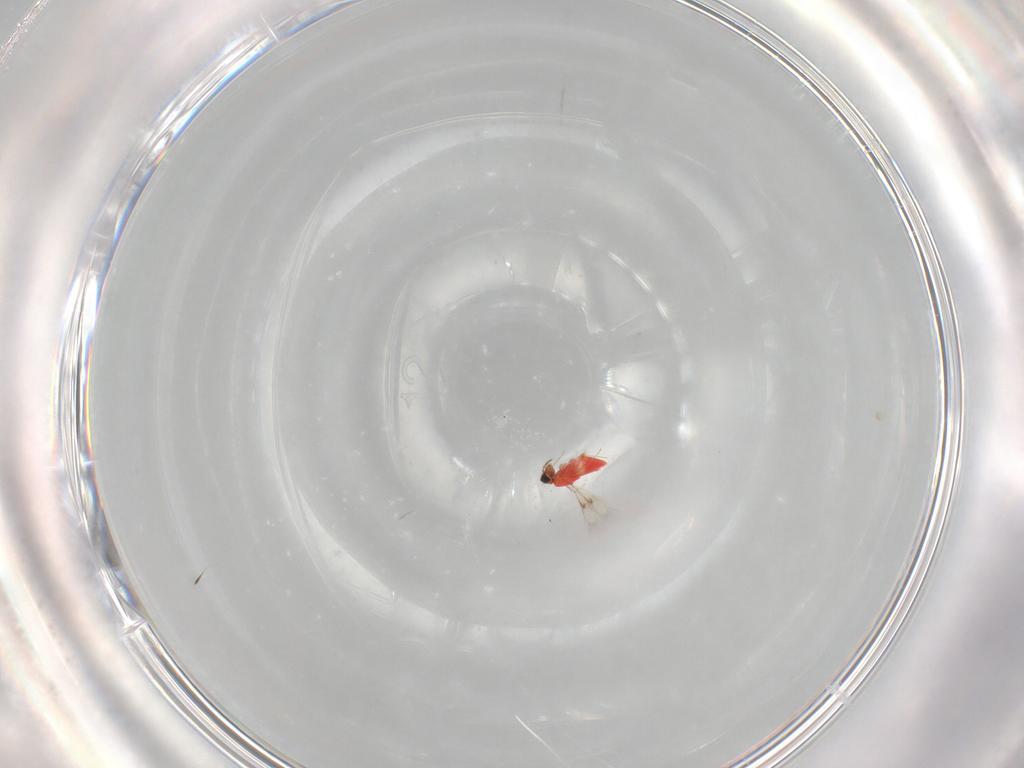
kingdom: Animalia
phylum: Arthropoda
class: Insecta
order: Hymenoptera
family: Trichogrammatidae
